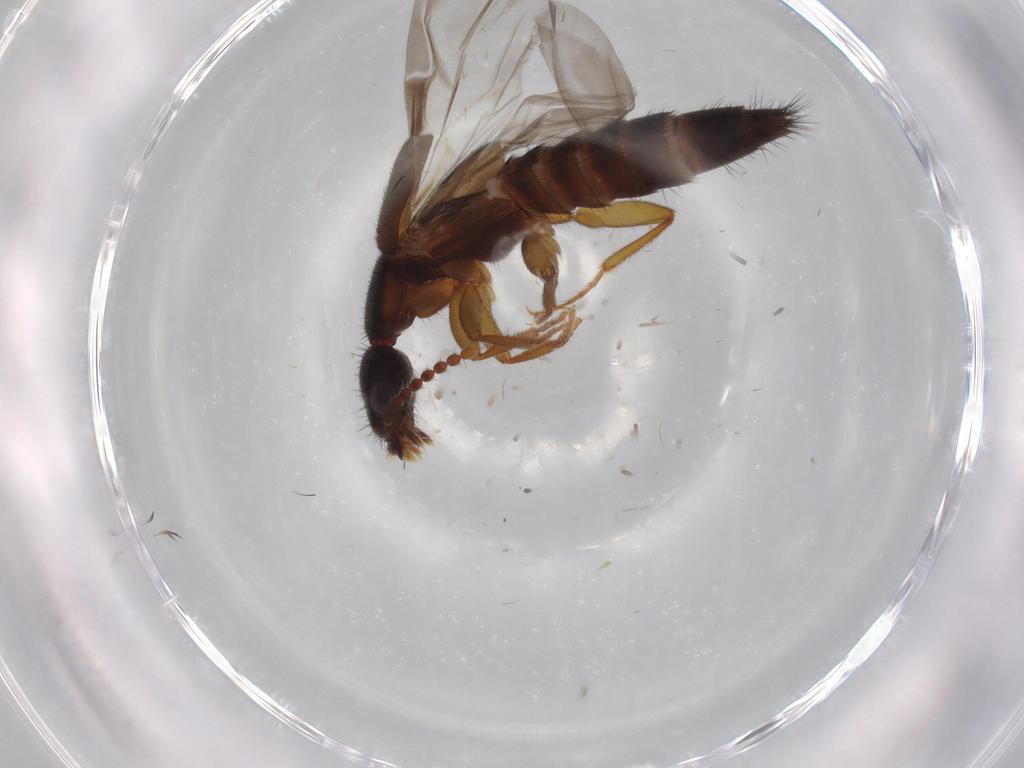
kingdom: Animalia
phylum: Arthropoda
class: Insecta
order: Coleoptera
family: Staphylinidae
